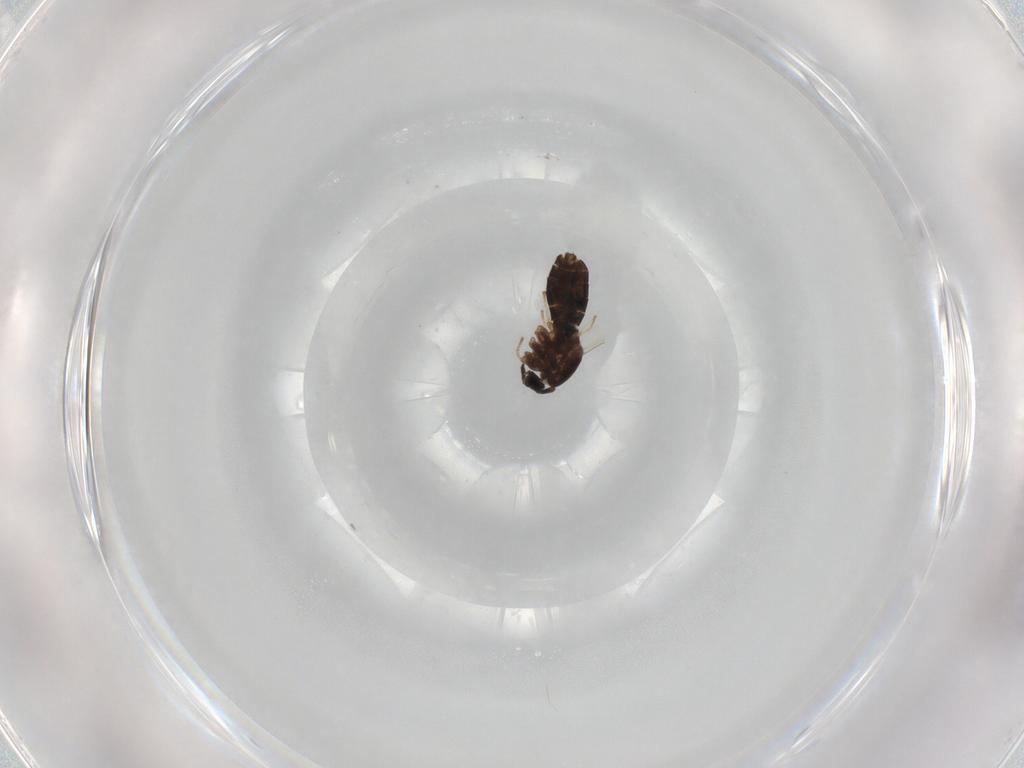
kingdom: Animalia
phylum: Arthropoda
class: Insecta
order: Diptera
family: Scatopsidae
